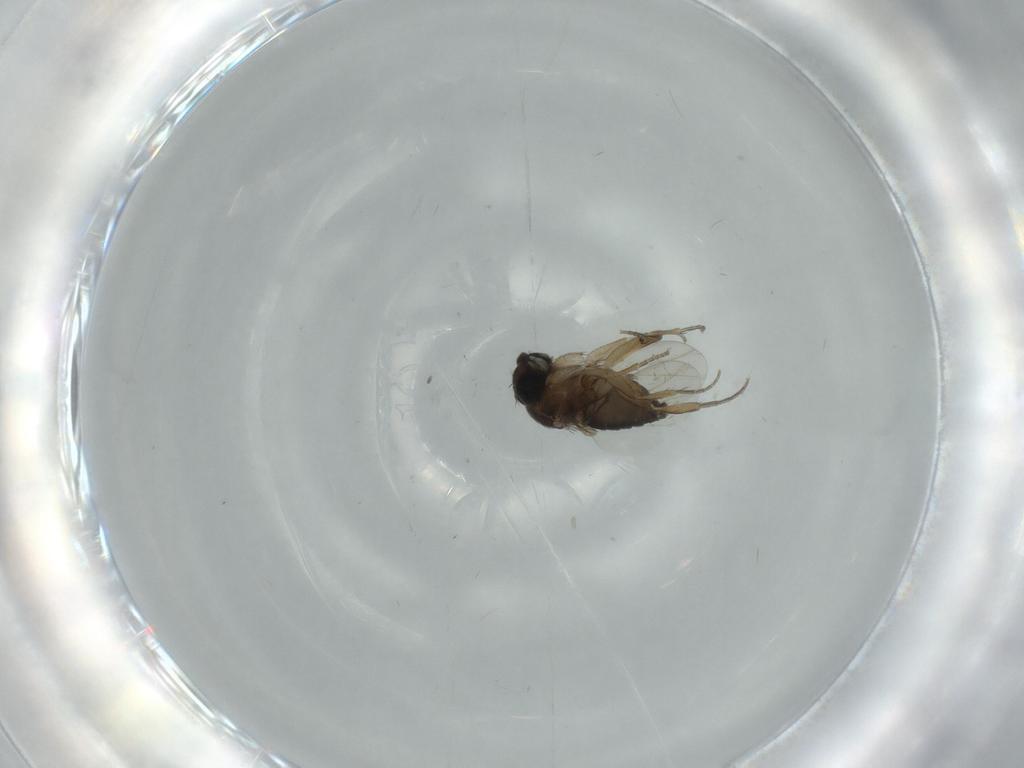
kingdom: Animalia
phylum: Arthropoda
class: Insecta
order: Diptera
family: Phoridae
